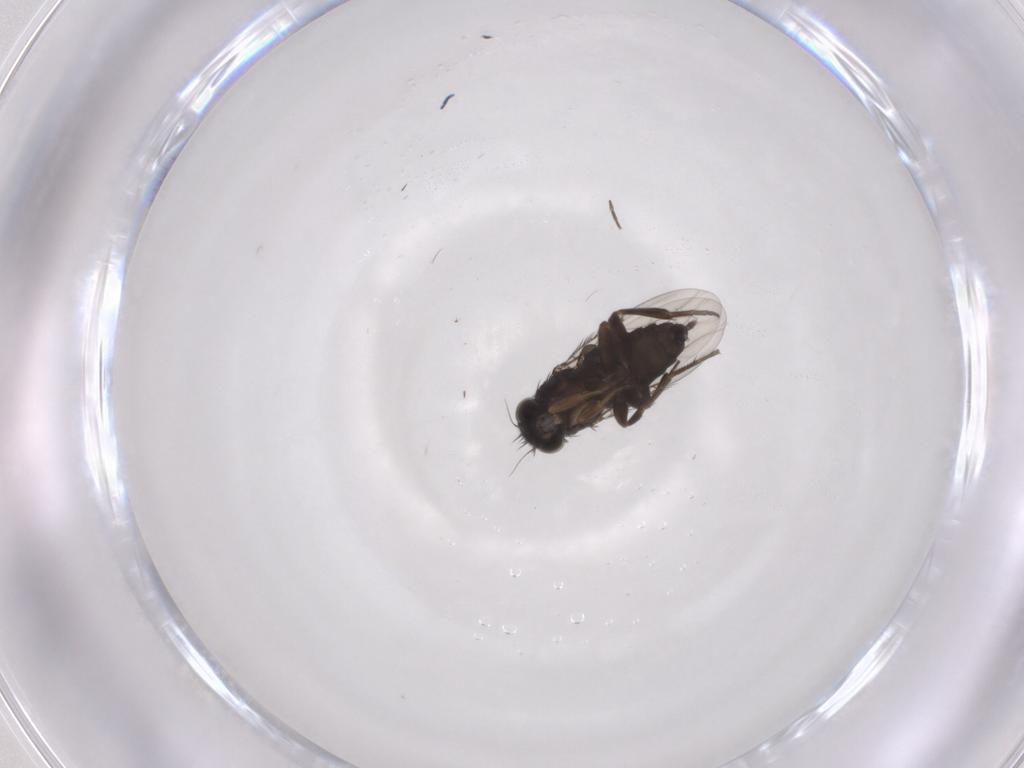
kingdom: Animalia
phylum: Arthropoda
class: Insecta
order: Diptera
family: Phoridae
